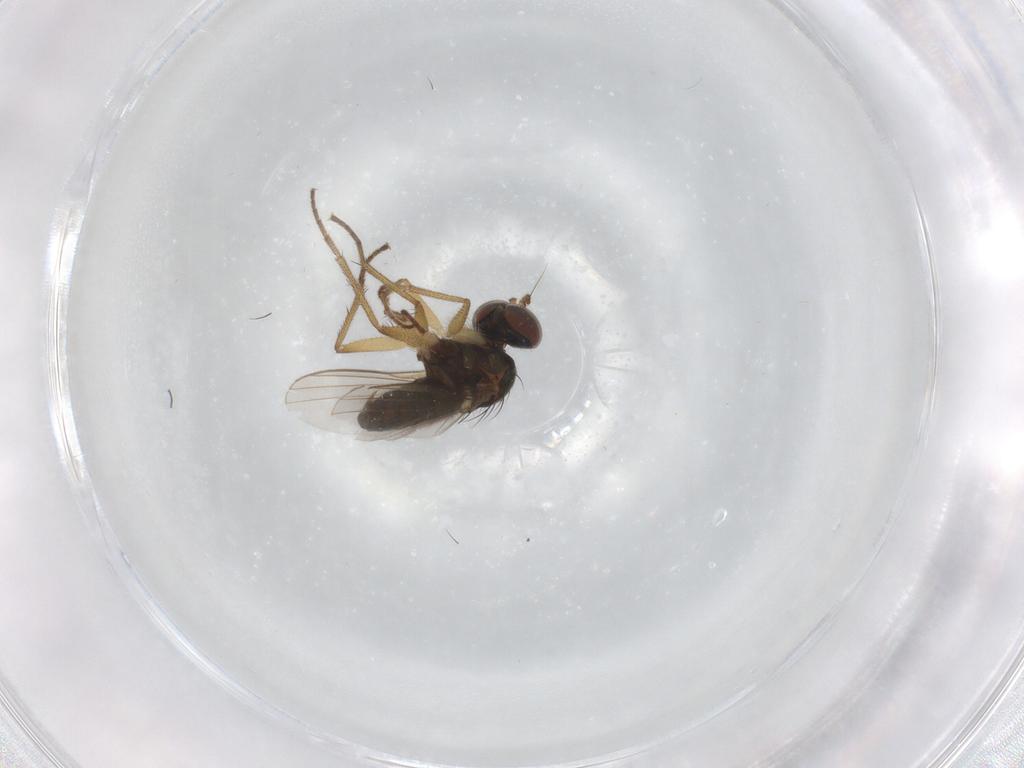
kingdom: Animalia
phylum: Arthropoda
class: Insecta
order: Diptera
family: Dolichopodidae
